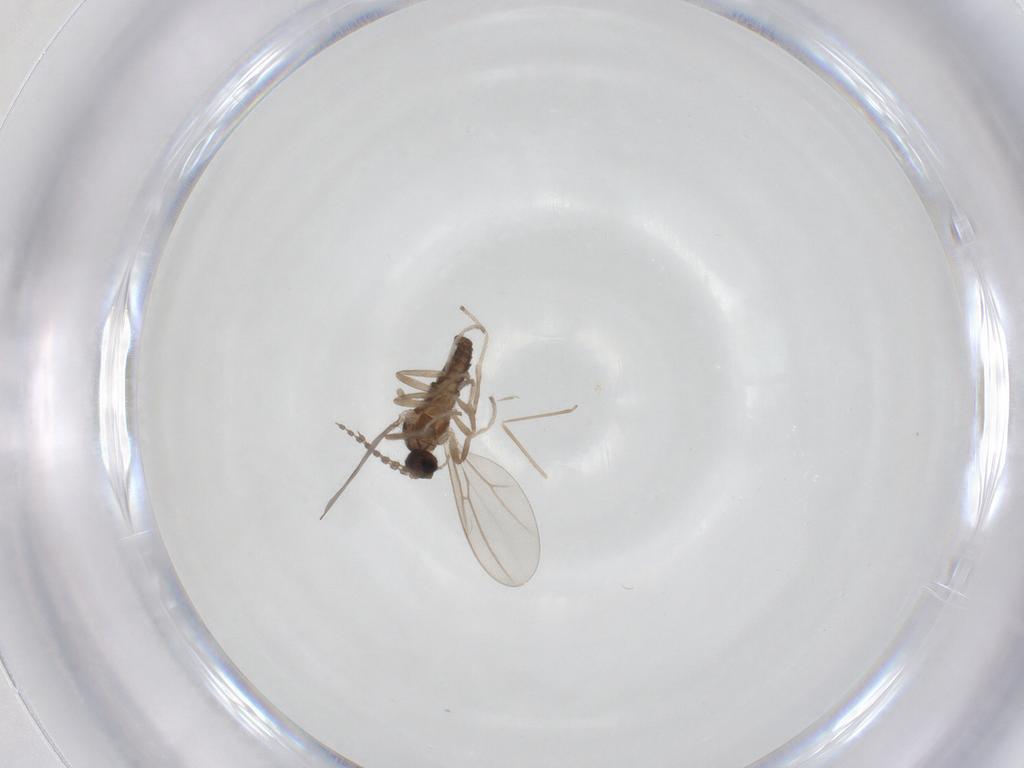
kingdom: Animalia
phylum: Arthropoda
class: Insecta
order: Diptera
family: Cecidomyiidae
